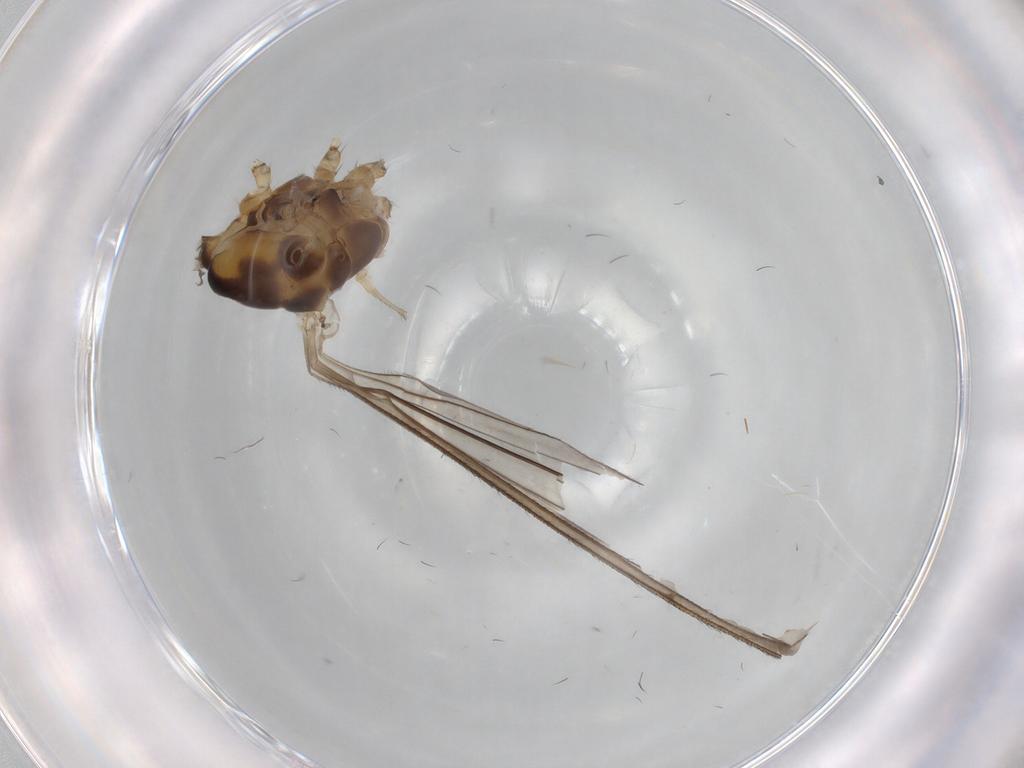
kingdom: Animalia
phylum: Arthropoda
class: Insecta
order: Diptera
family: Limoniidae
